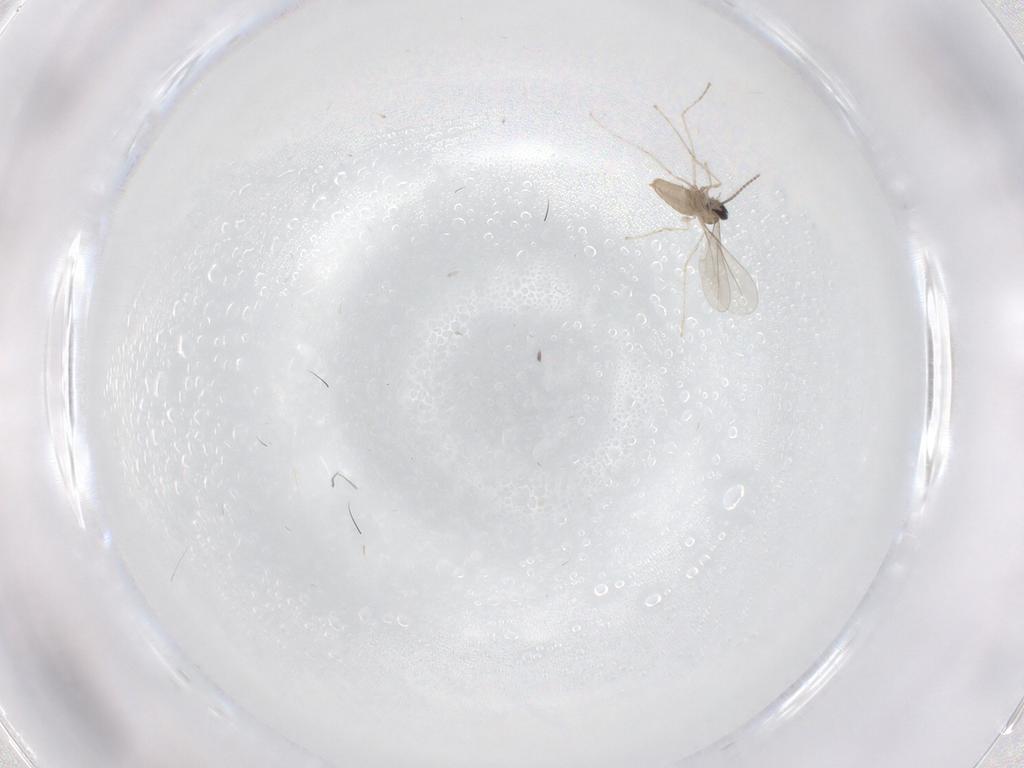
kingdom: Animalia
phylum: Arthropoda
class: Insecta
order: Diptera
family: Cecidomyiidae
